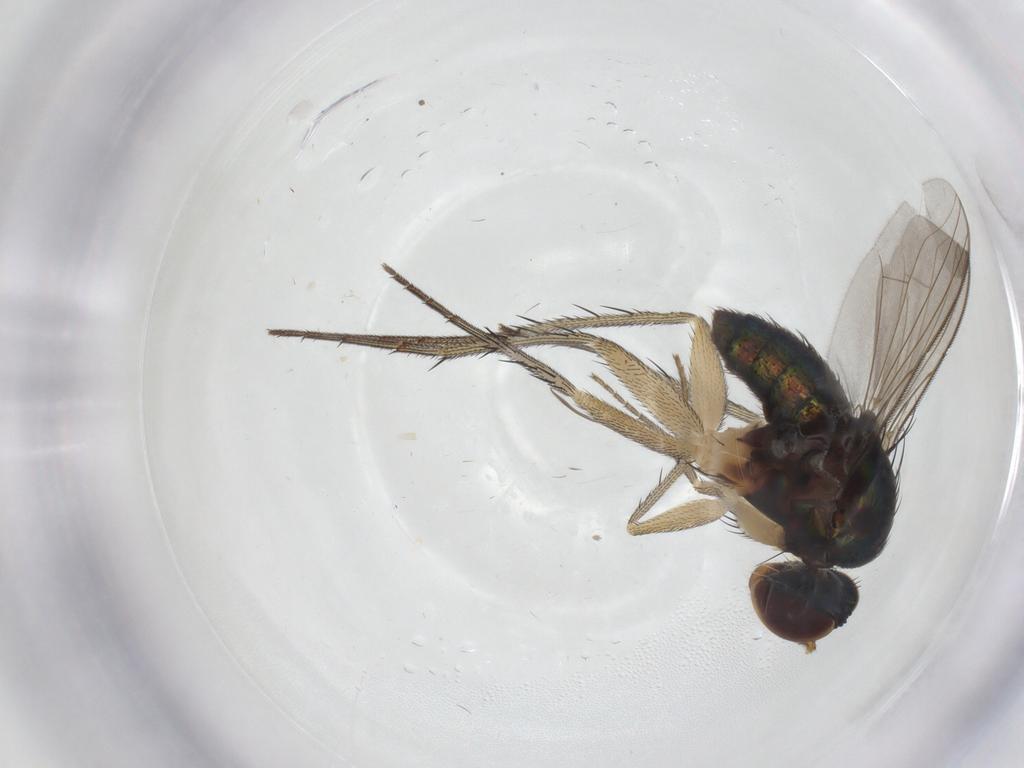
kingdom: Animalia
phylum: Arthropoda
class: Insecta
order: Diptera
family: Dolichopodidae
